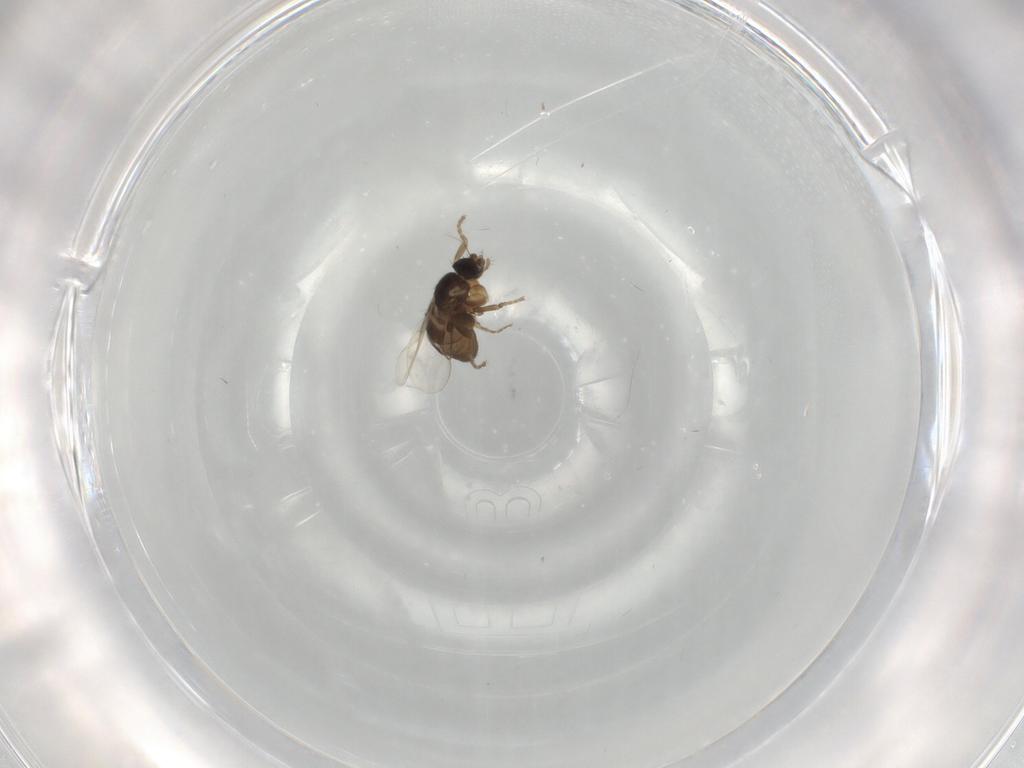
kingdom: Animalia
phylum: Arthropoda
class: Insecta
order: Diptera
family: Phoridae
